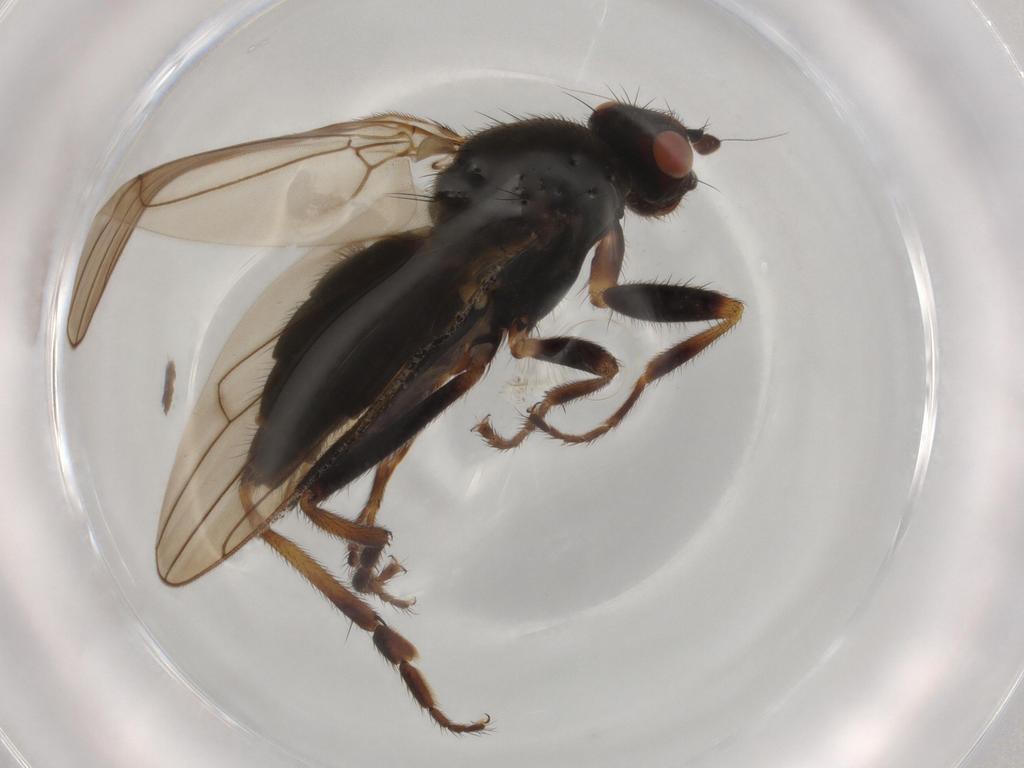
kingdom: Animalia
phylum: Arthropoda
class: Insecta
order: Diptera
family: Sphaeroceridae
